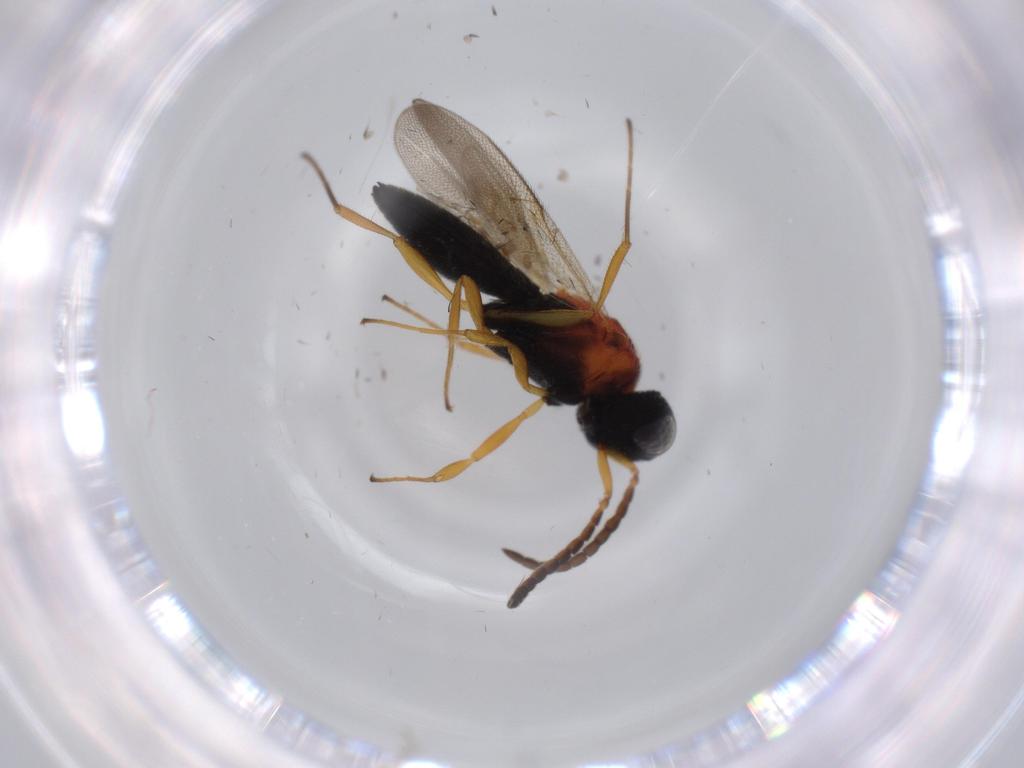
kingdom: Animalia
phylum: Arthropoda
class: Insecta
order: Hymenoptera
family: Scelionidae
